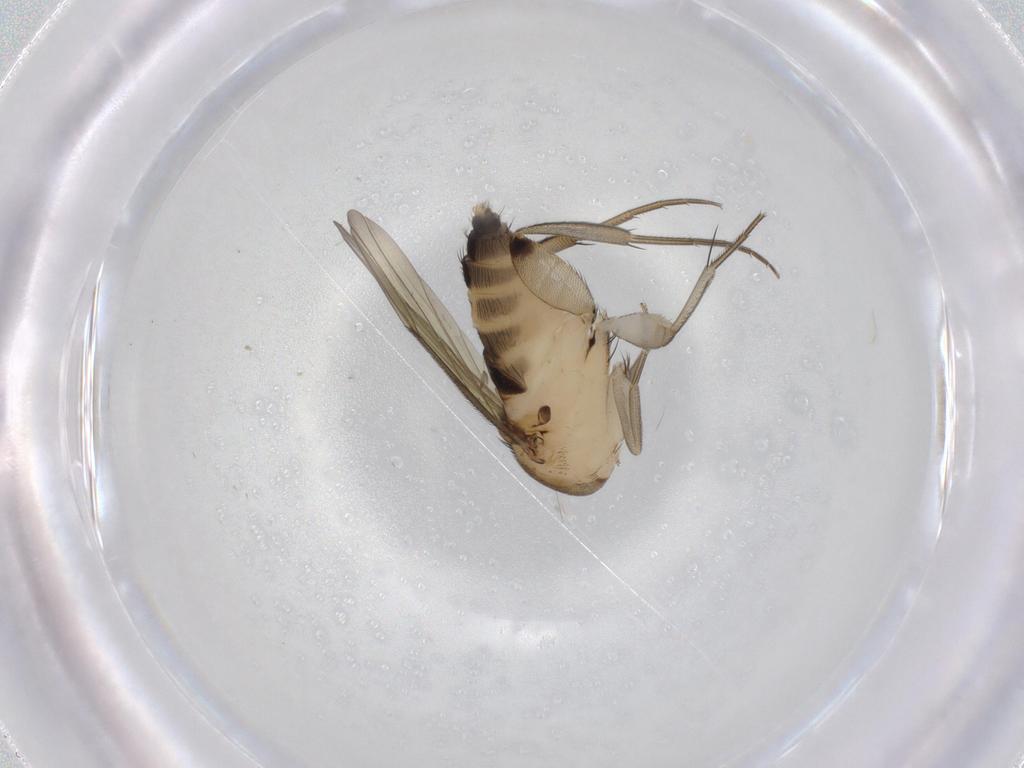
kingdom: Animalia
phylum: Arthropoda
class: Insecta
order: Diptera
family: Phoridae
